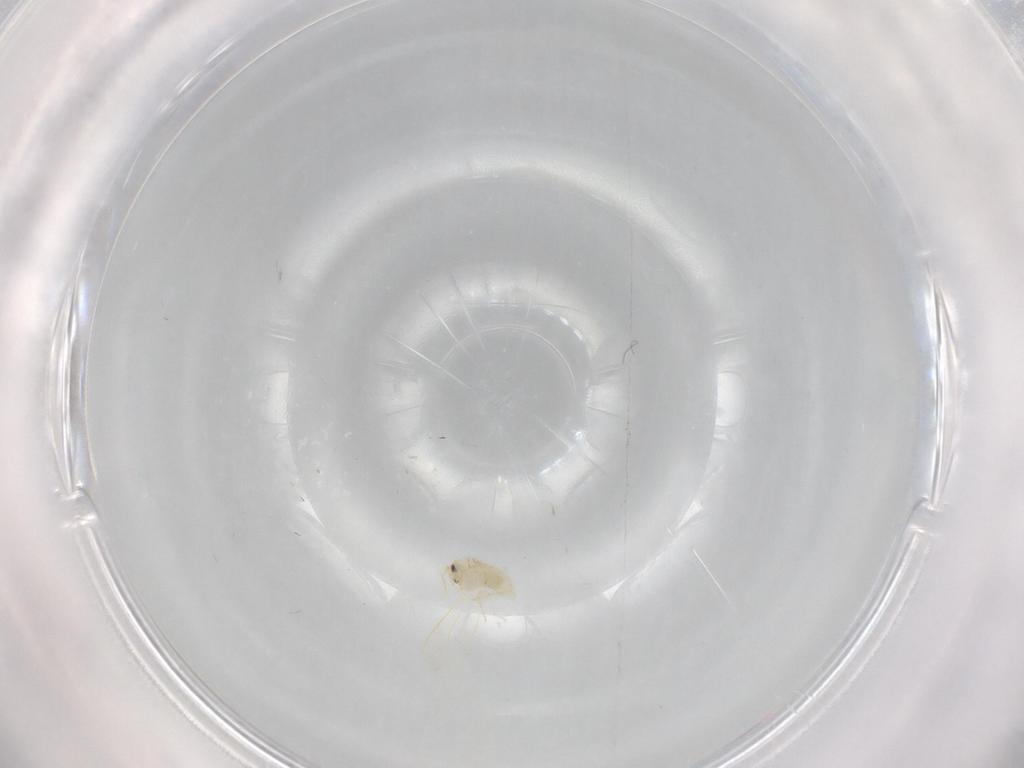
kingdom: Animalia
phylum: Arthropoda
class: Insecta
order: Hemiptera
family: Aleyrodidae
